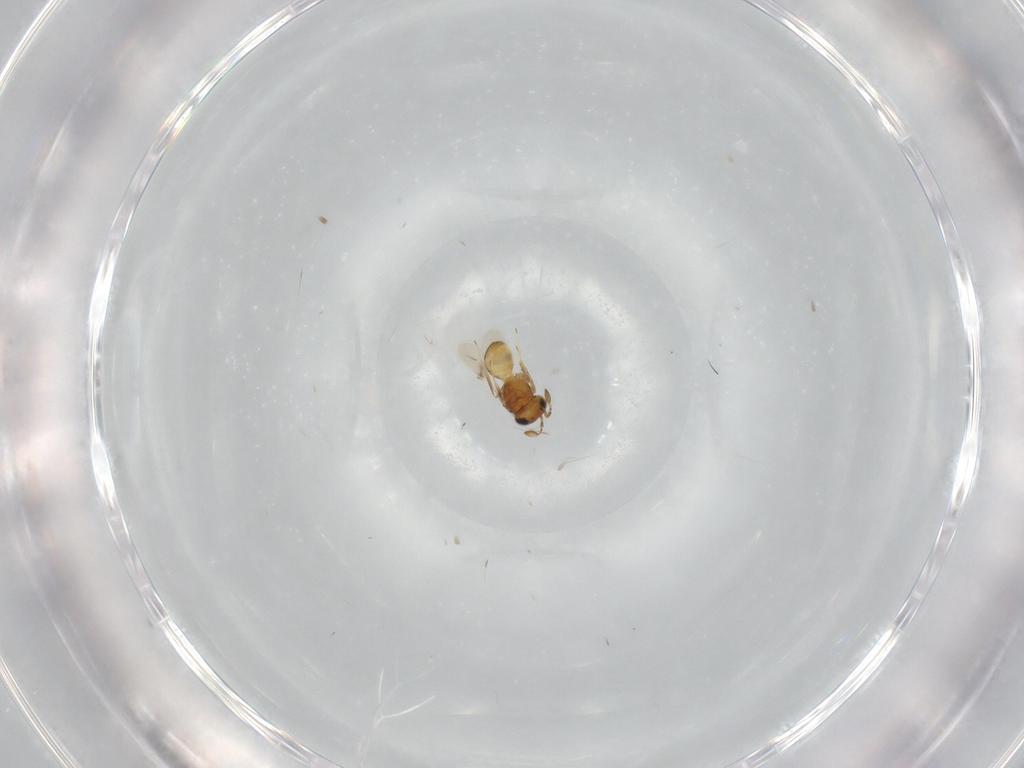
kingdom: Animalia
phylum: Arthropoda
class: Insecta
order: Hymenoptera
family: Scelionidae
